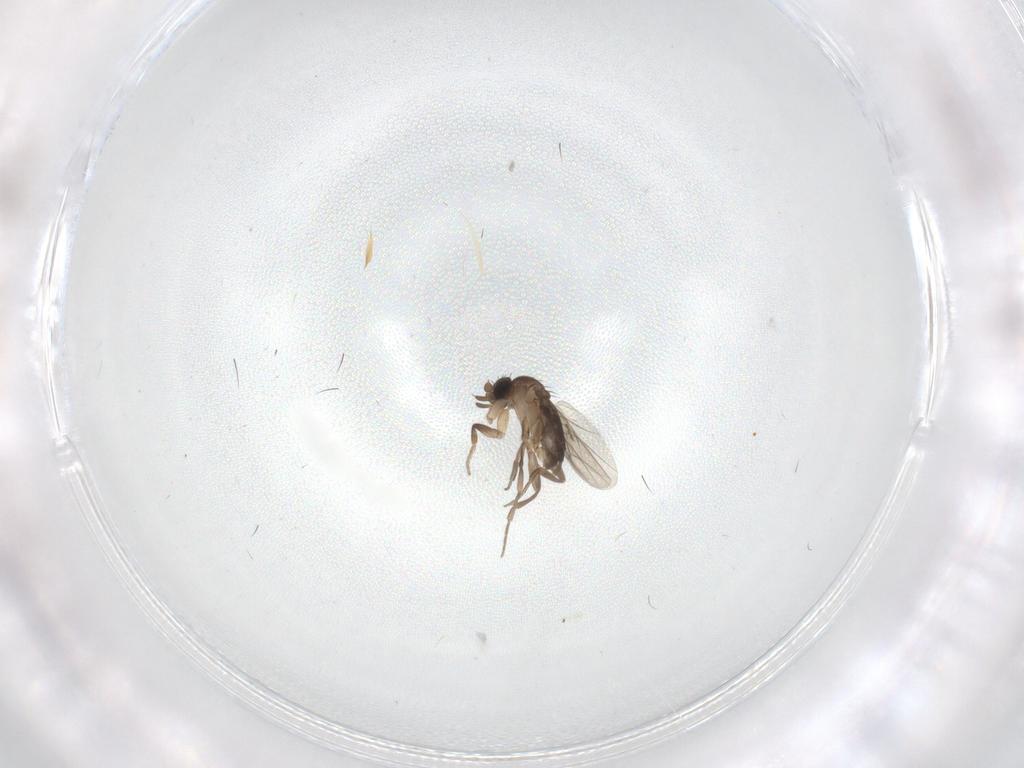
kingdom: Animalia
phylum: Arthropoda
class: Insecta
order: Diptera
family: Phoridae
